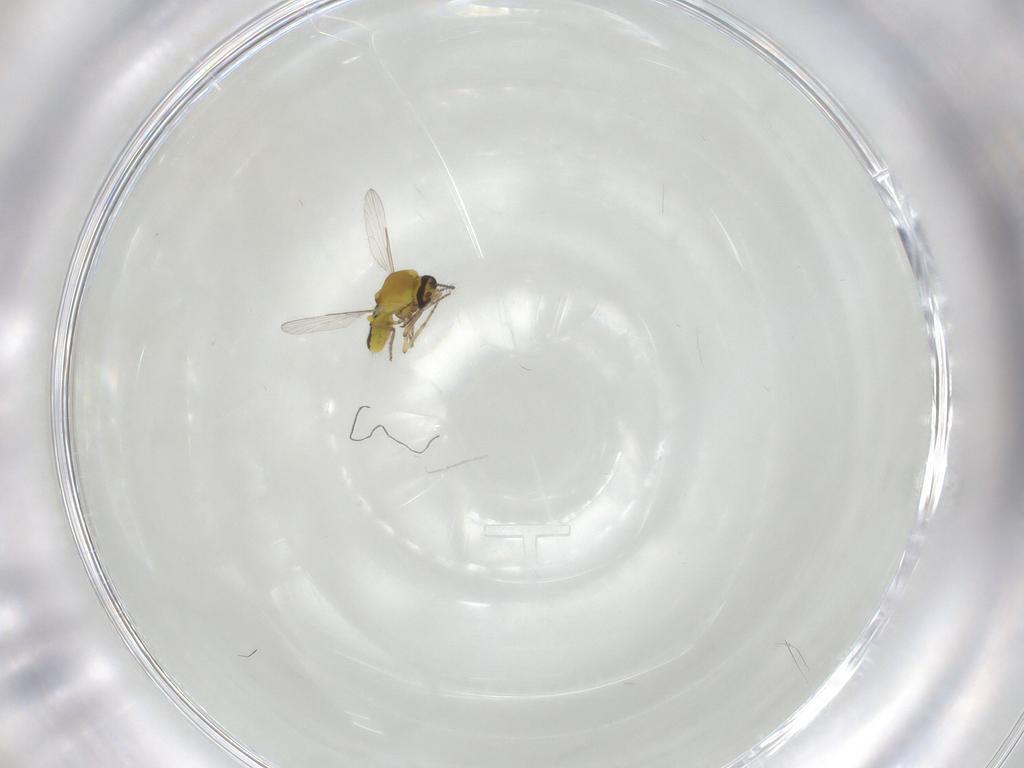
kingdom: Animalia
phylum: Arthropoda
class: Insecta
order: Diptera
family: Ceratopogonidae
